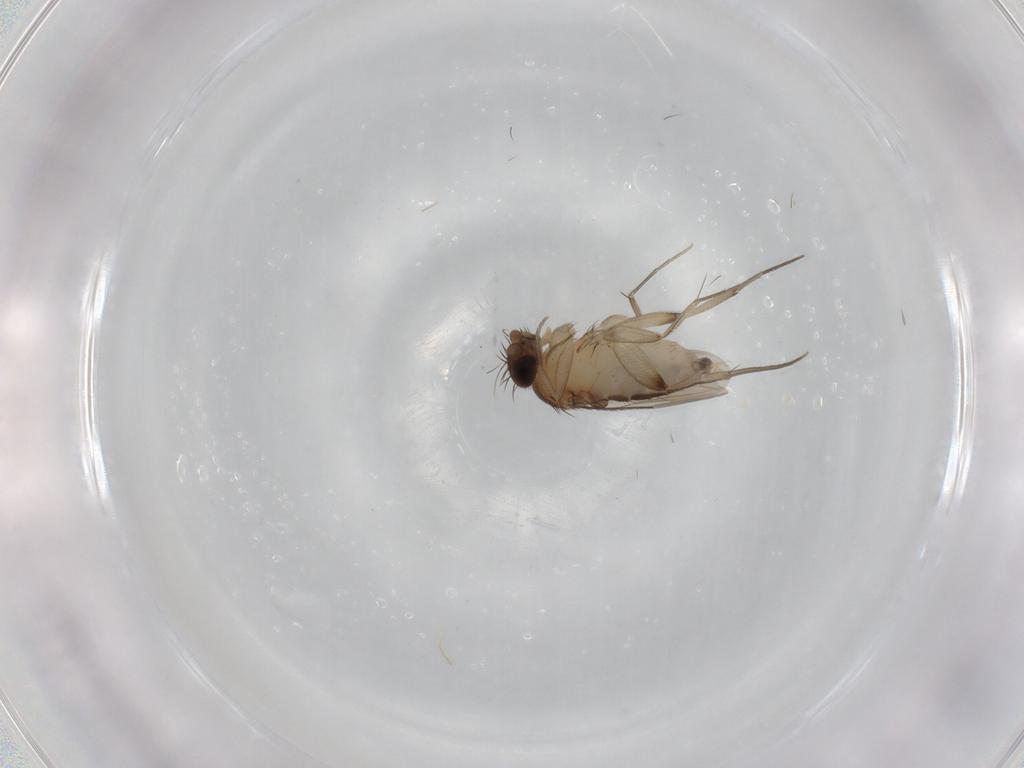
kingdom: Animalia
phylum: Arthropoda
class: Insecta
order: Diptera
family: Phoridae
